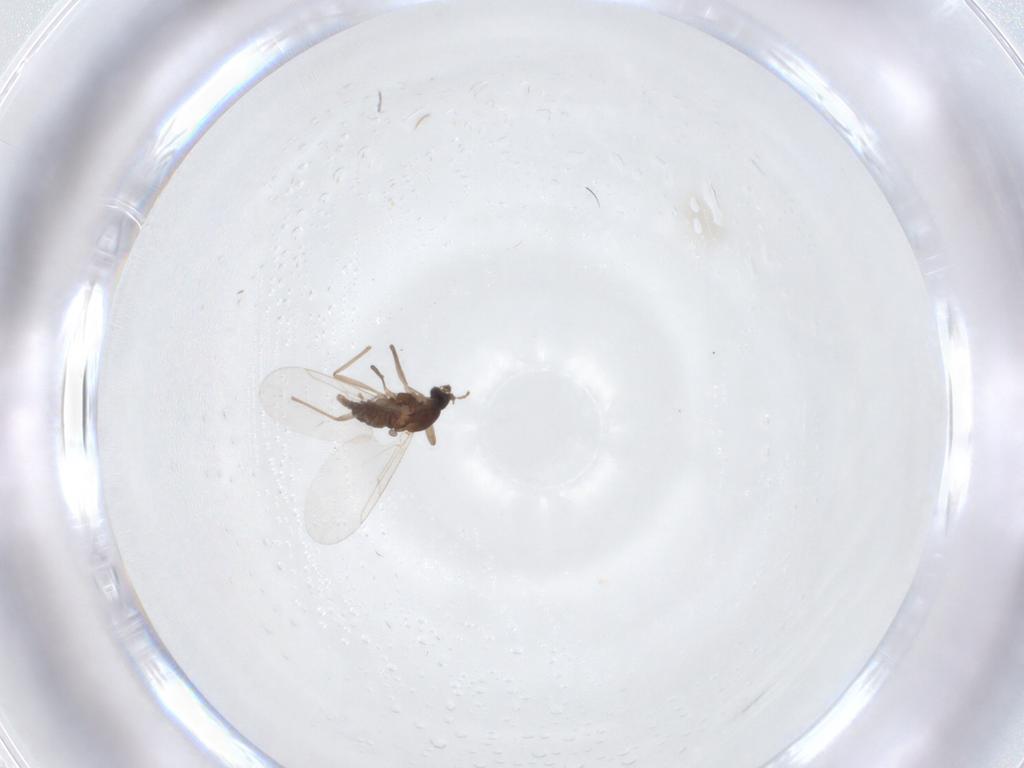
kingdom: Animalia
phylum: Arthropoda
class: Insecta
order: Diptera
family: Cecidomyiidae
